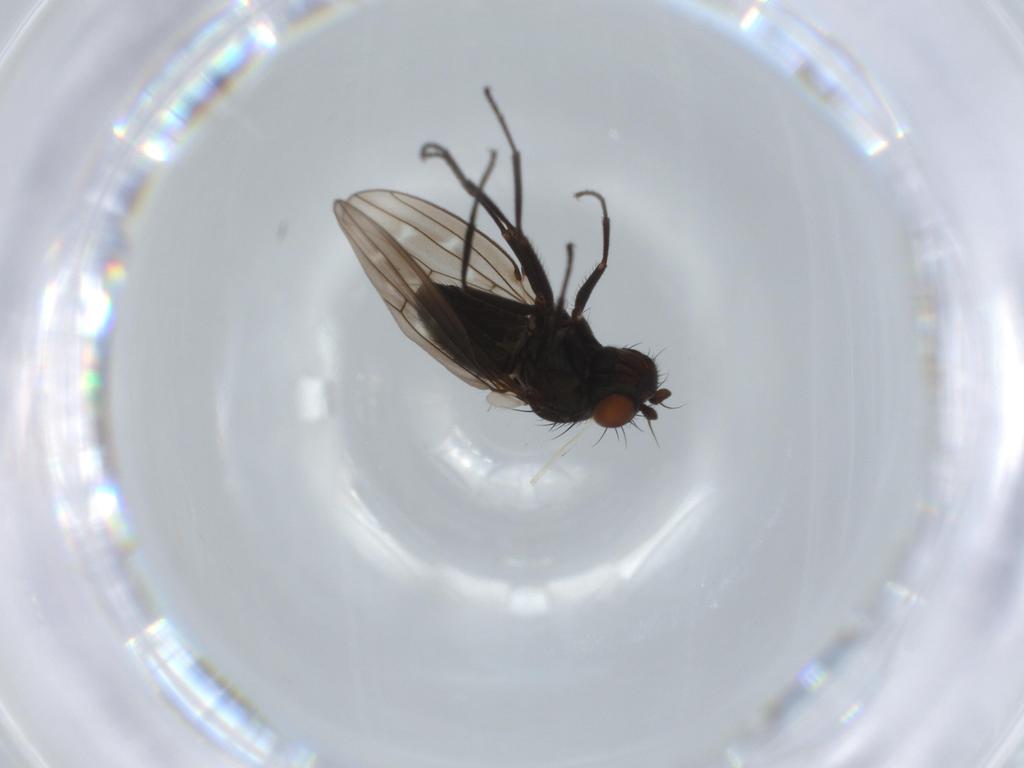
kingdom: Animalia
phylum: Arthropoda
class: Insecta
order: Diptera
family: Ephydridae
